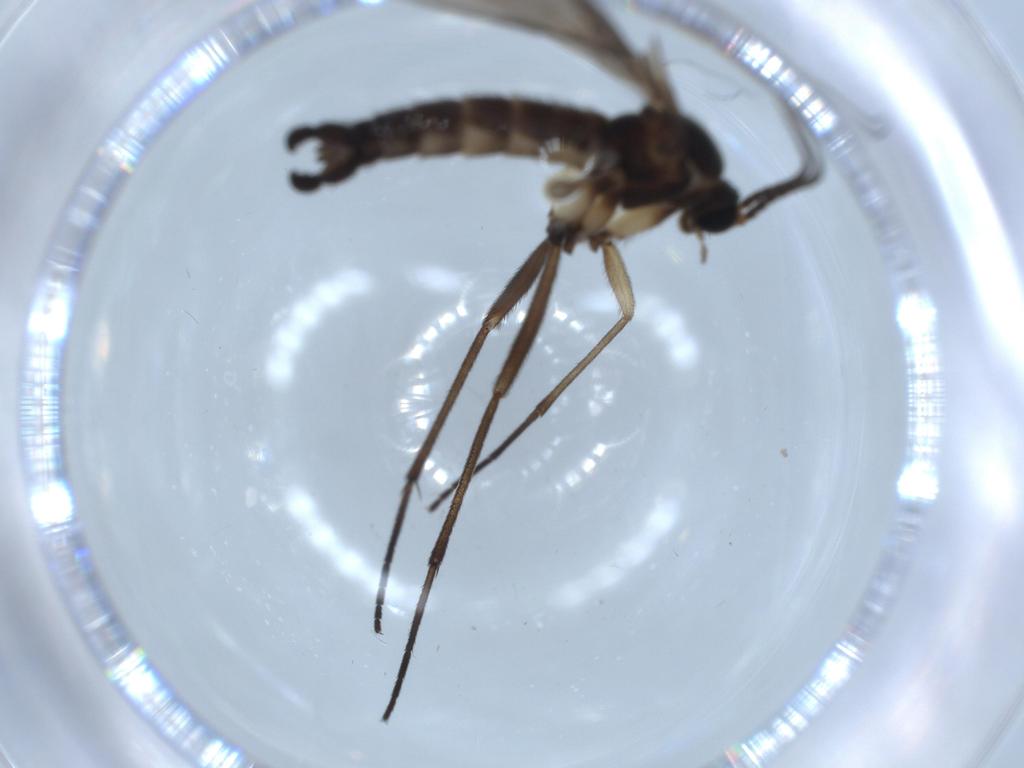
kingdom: Animalia
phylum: Arthropoda
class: Insecta
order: Diptera
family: Sciaridae
